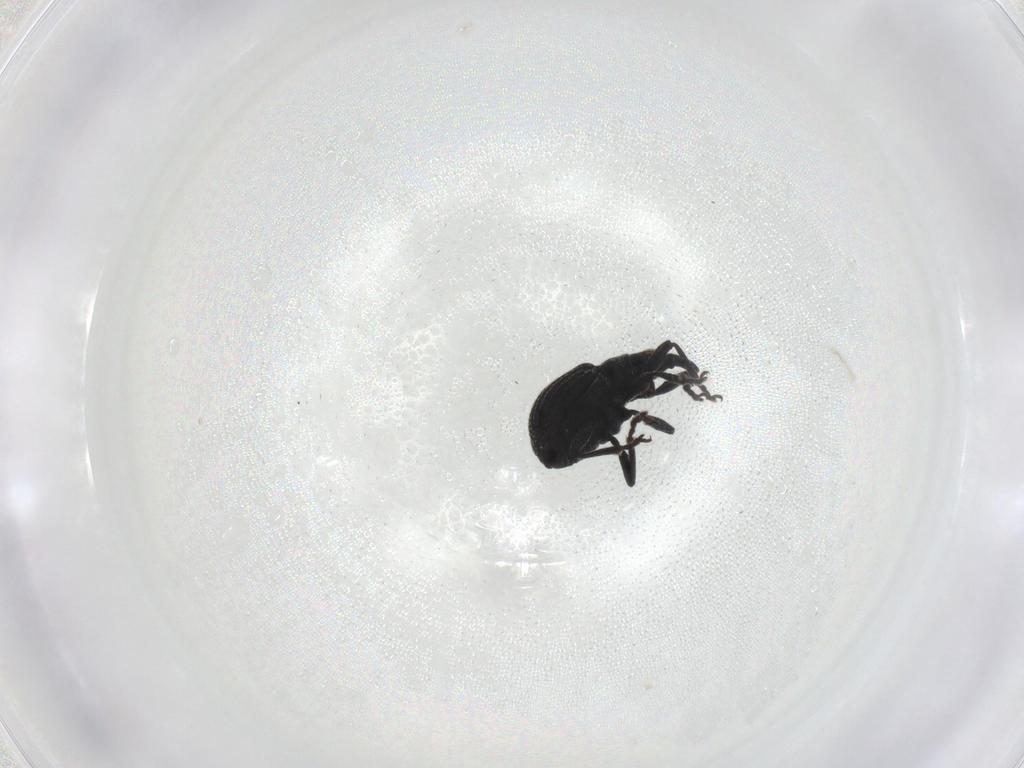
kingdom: Animalia
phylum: Arthropoda
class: Insecta
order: Coleoptera
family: Brentidae
